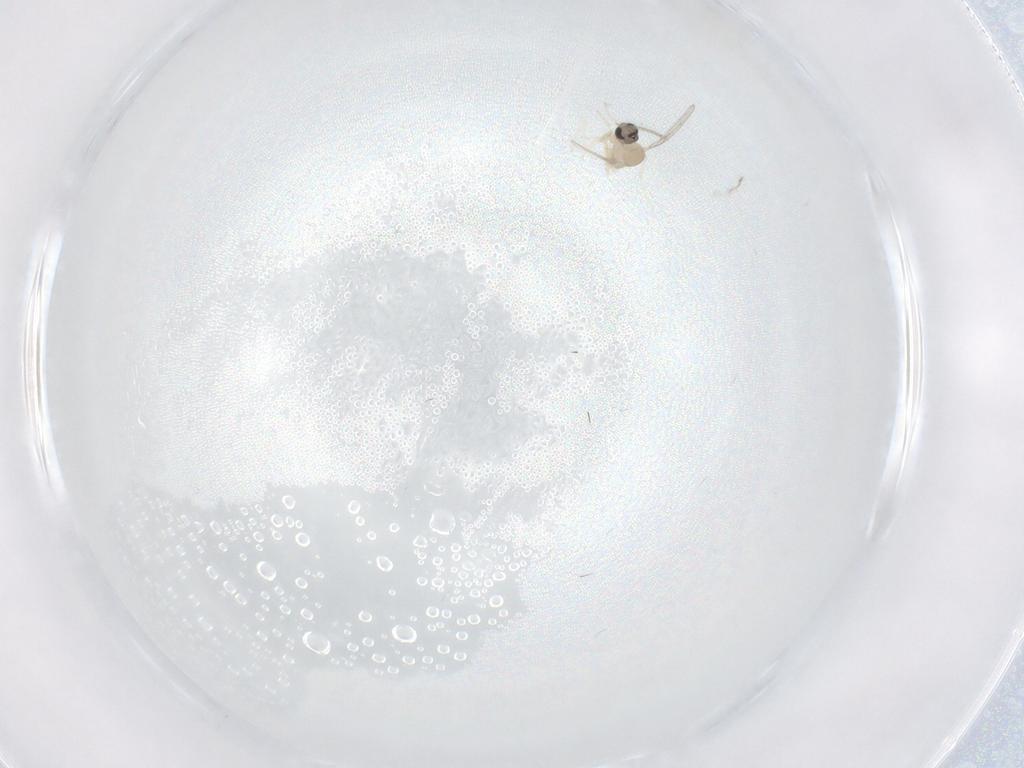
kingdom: Animalia
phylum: Arthropoda
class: Insecta
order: Diptera
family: Cecidomyiidae
